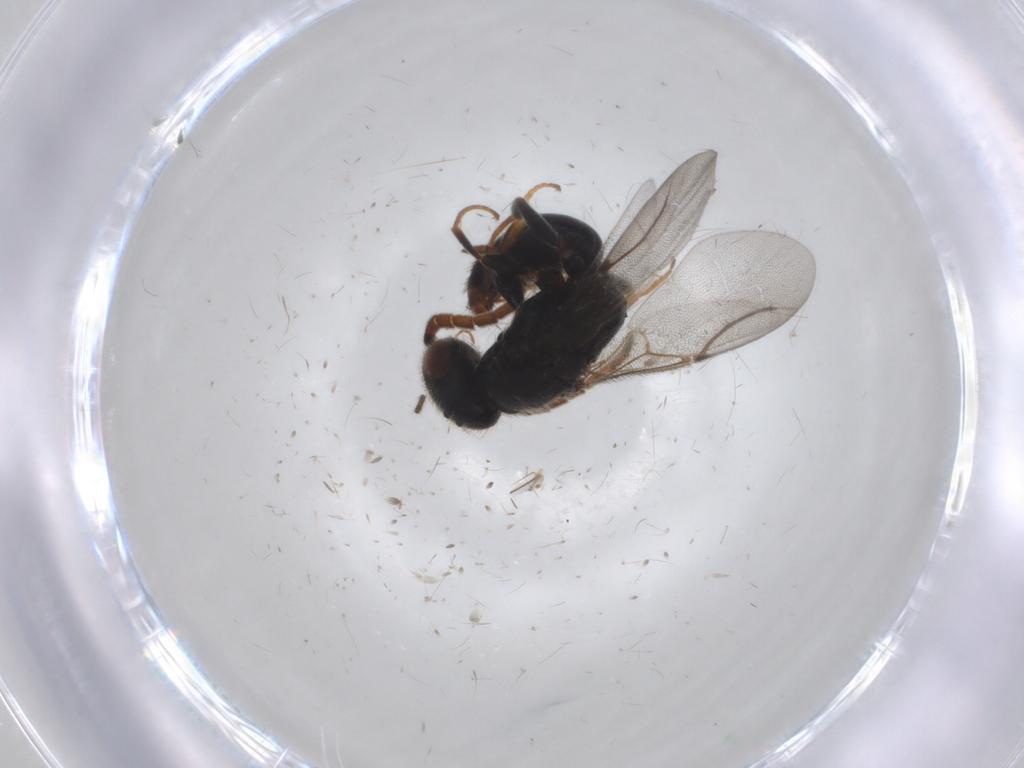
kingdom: Animalia
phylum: Arthropoda
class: Insecta
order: Hymenoptera
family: Bethylidae
